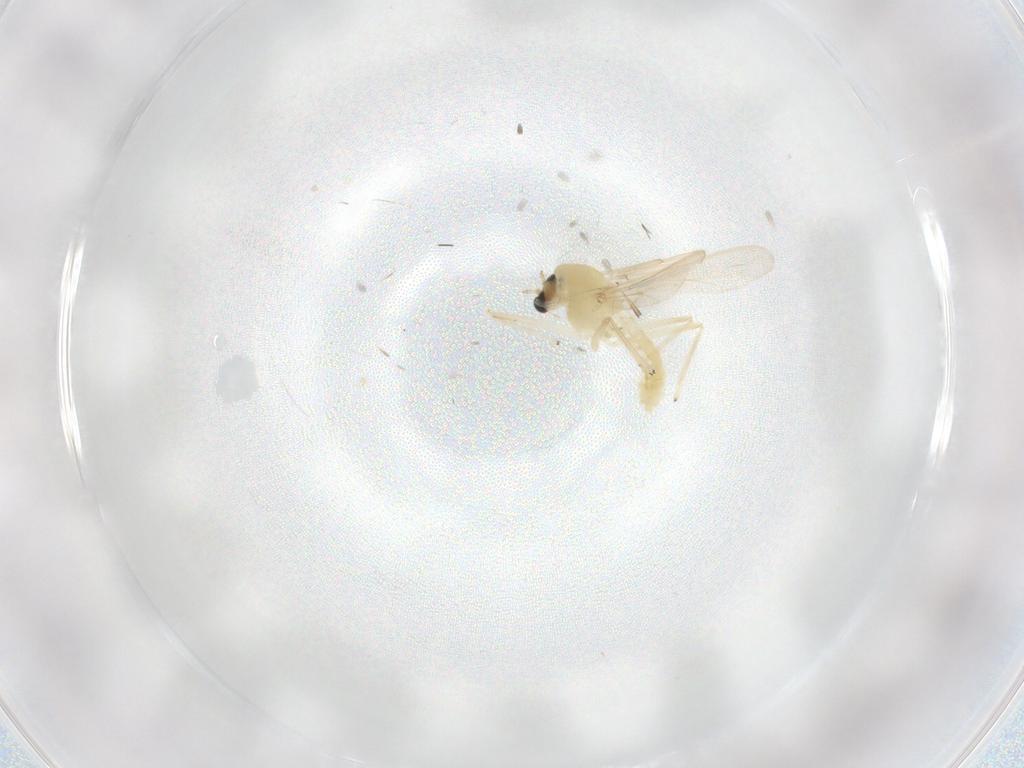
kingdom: Animalia
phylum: Arthropoda
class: Insecta
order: Diptera
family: Chironomidae
